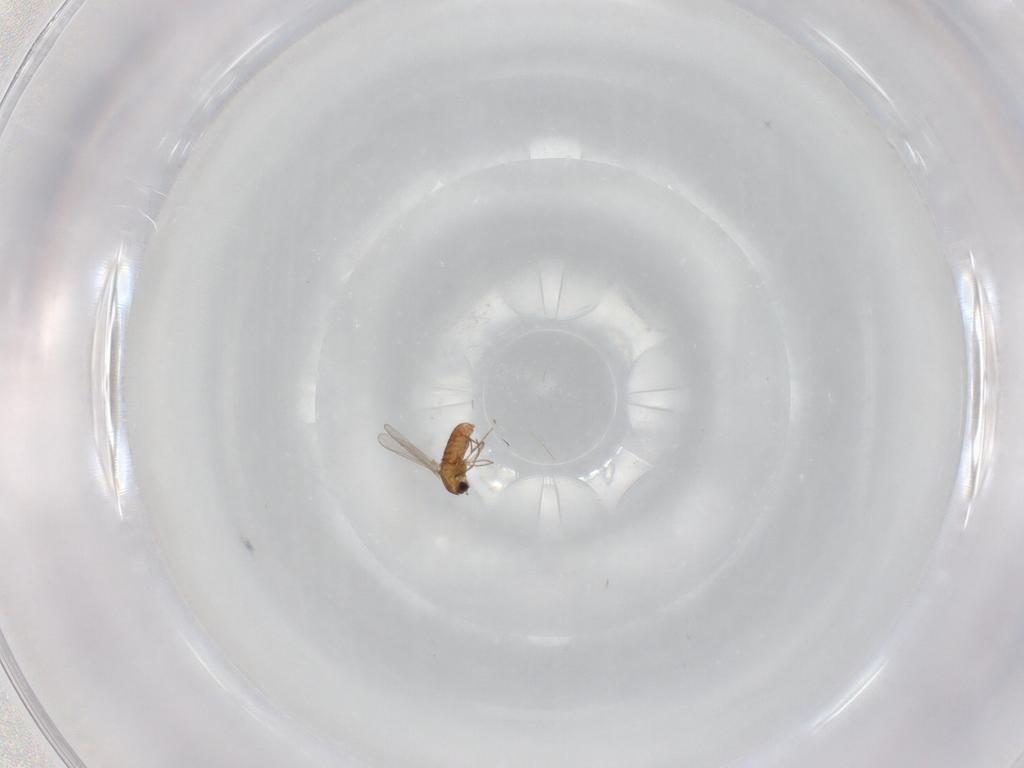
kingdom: Animalia
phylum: Arthropoda
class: Insecta
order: Diptera
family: Chironomidae
